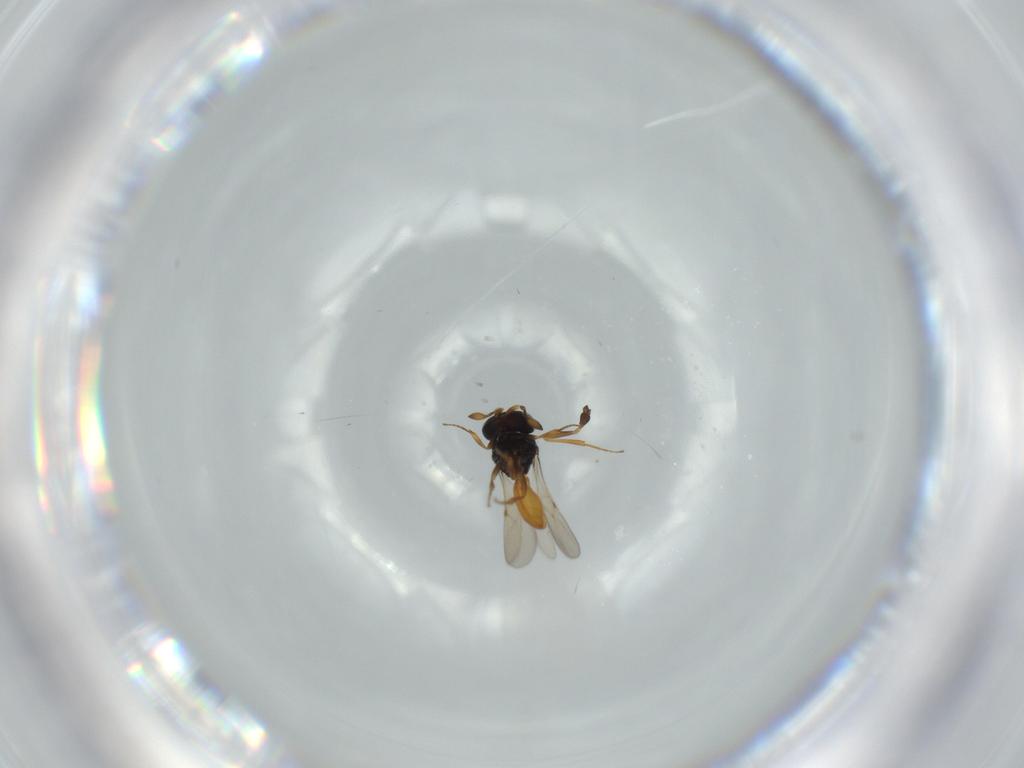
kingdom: Animalia
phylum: Arthropoda
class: Insecta
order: Hymenoptera
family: Scelionidae
